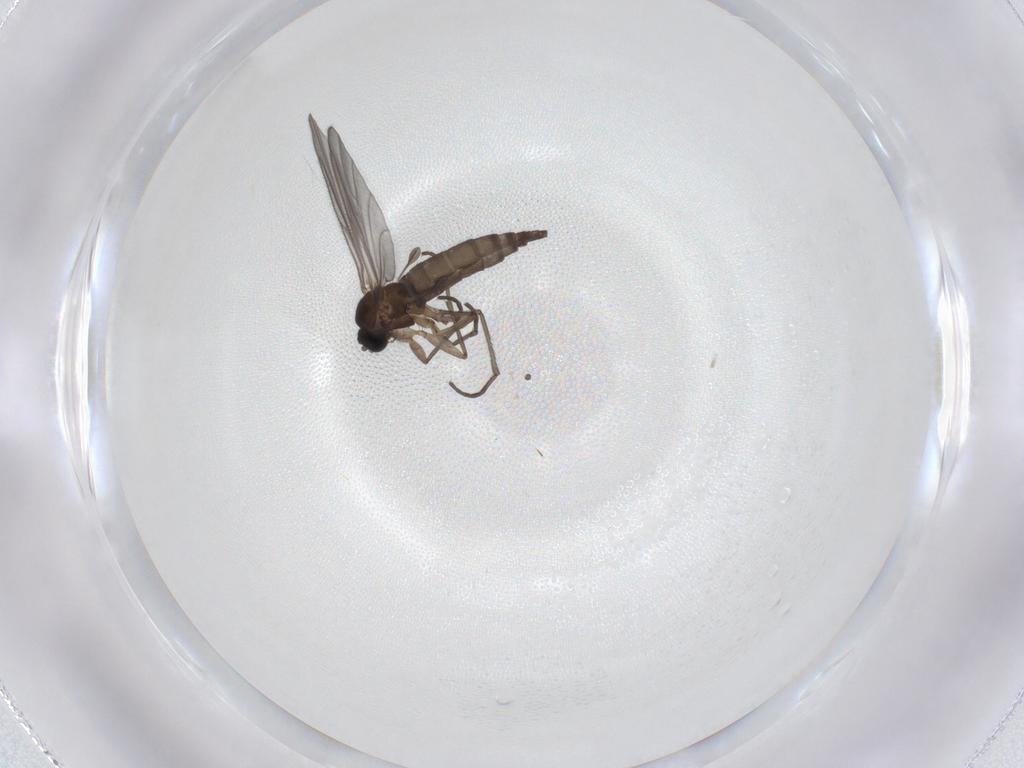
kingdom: Animalia
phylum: Arthropoda
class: Insecta
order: Diptera
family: Sciaridae
